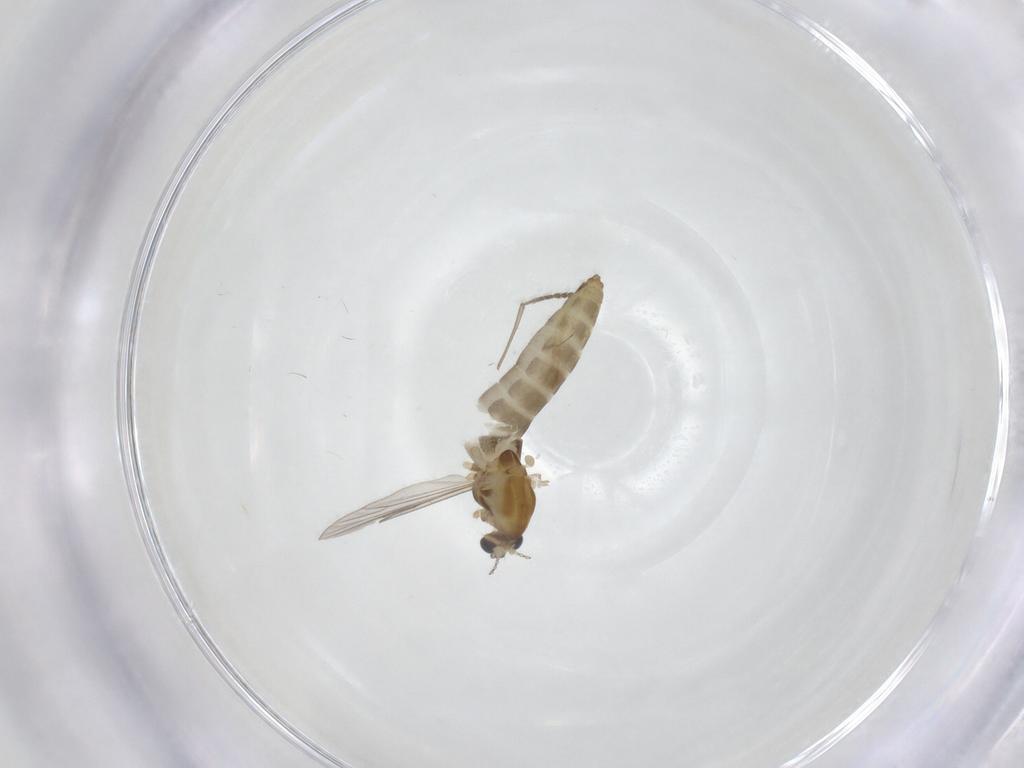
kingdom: Animalia
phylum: Arthropoda
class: Insecta
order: Diptera
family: Chironomidae
